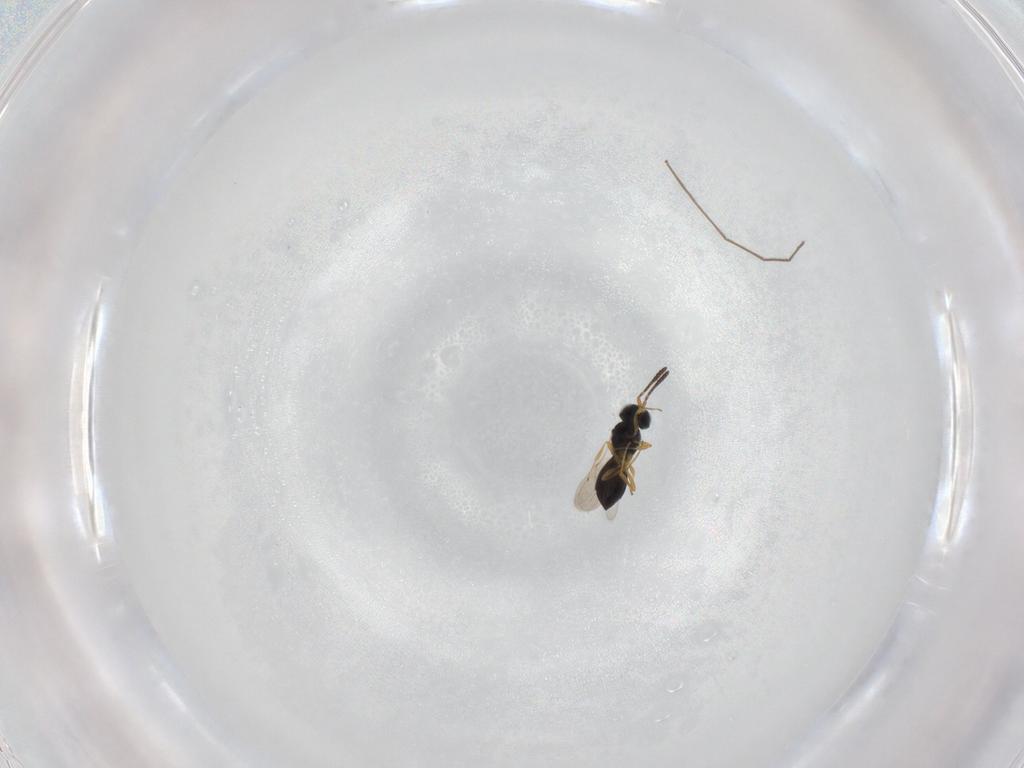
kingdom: Animalia
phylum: Arthropoda
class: Insecta
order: Hymenoptera
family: Scelionidae
